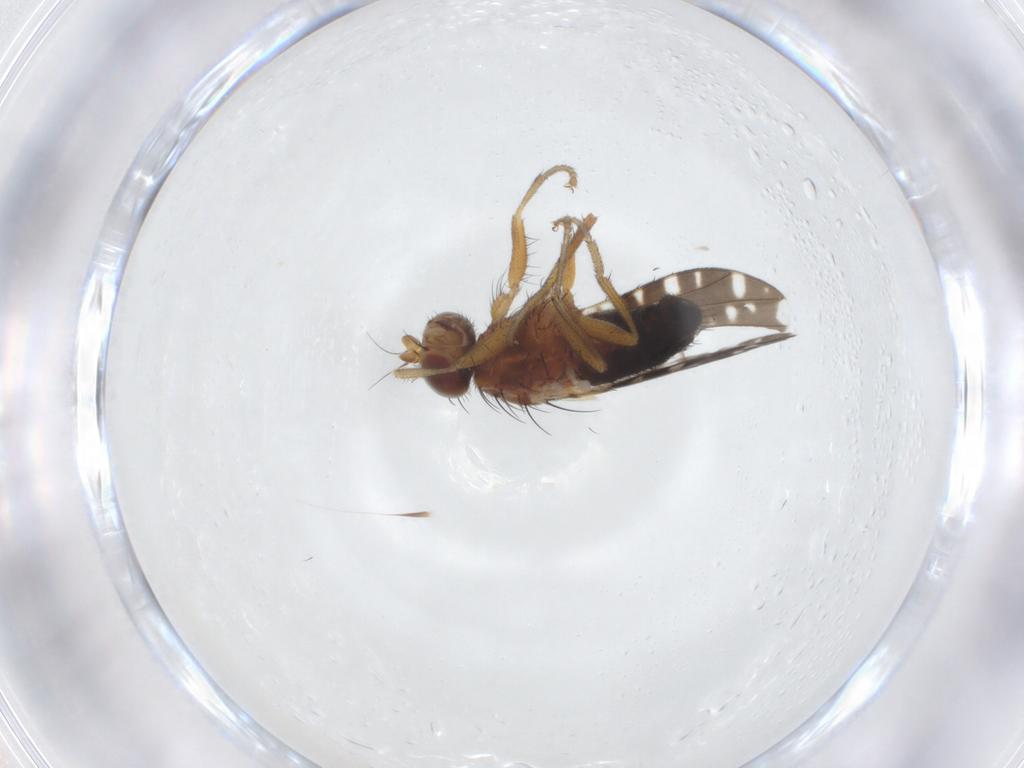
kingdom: Animalia
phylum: Arthropoda
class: Insecta
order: Diptera
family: Heleomyzidae
